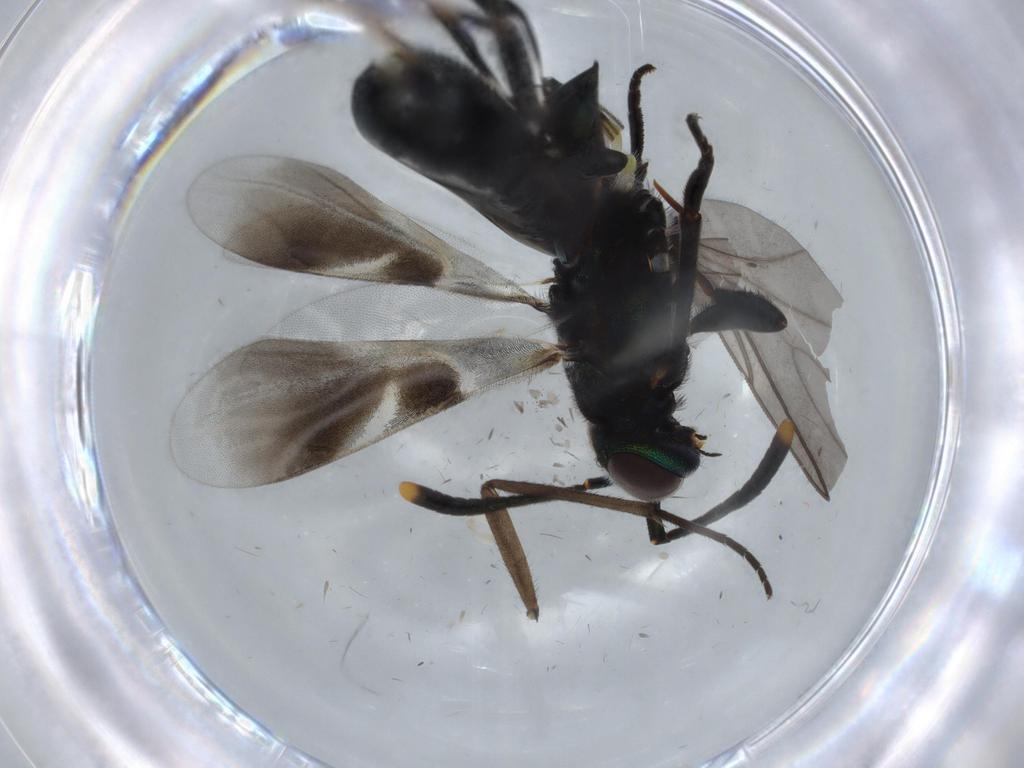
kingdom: Animalia
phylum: Arthropoda
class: Insecta
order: Hymenoptera
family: Eupelmidae
